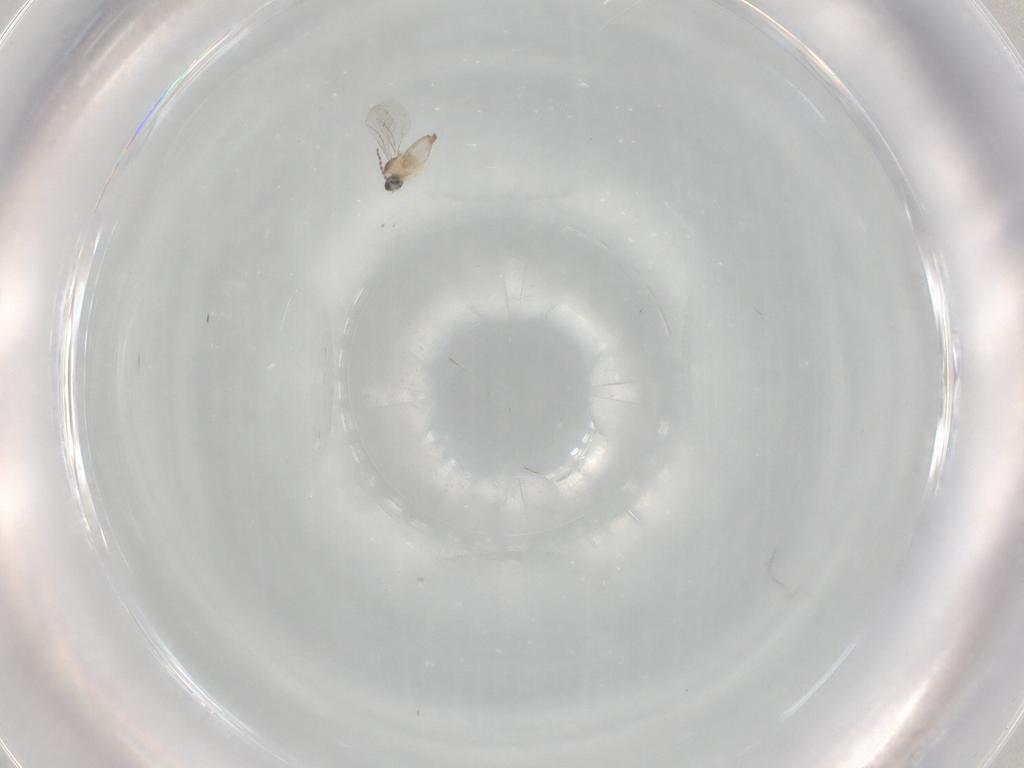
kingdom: Animalia
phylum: Arthropoda
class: Insecta
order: Diptera
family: Cecidomyiidae
